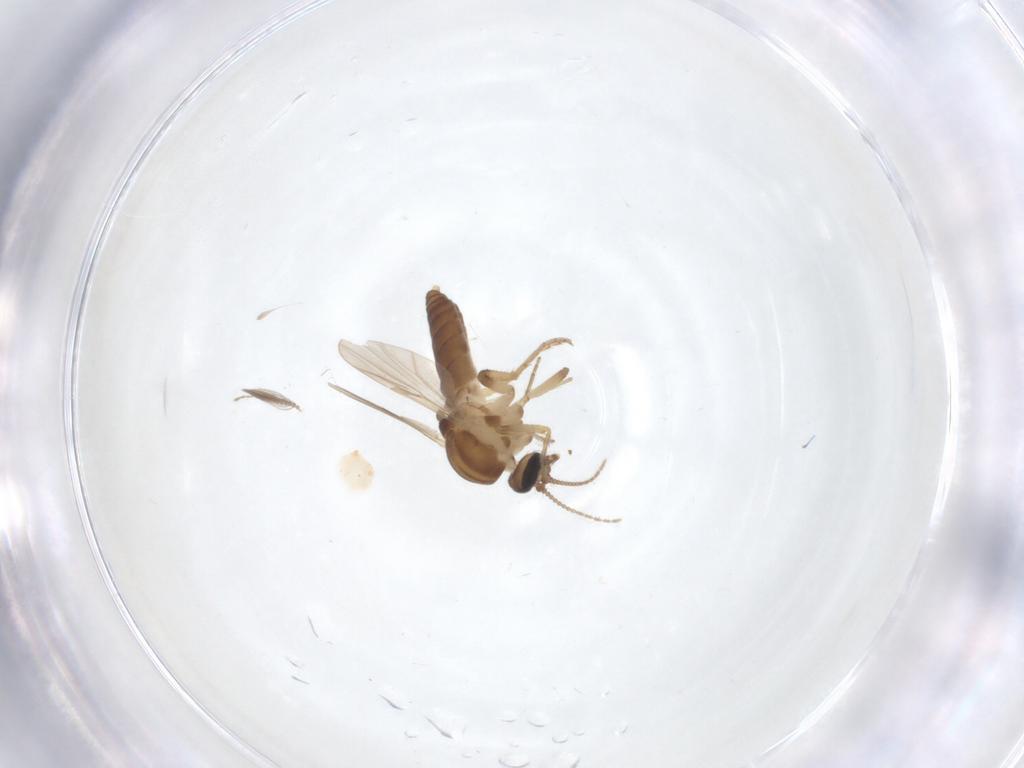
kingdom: Animalia
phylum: Arthropoda
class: Insecta
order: Diptera
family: Ceratopogonidae
